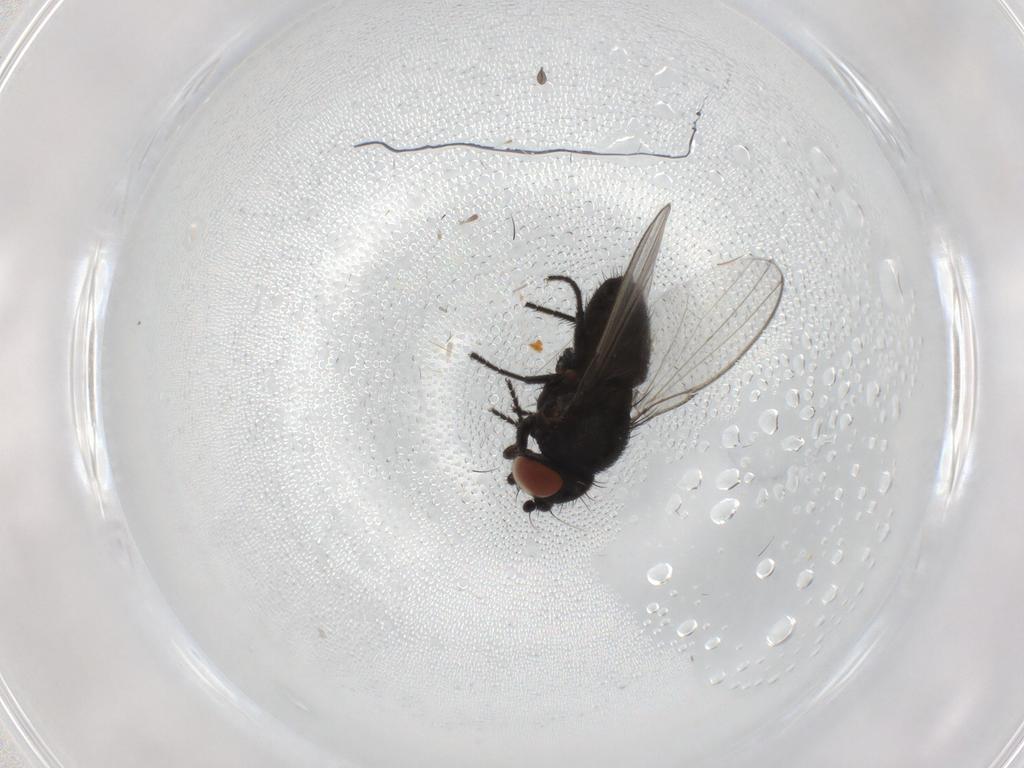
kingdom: Animalia
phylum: Arthropoda
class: Insecta
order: Diptera
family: Milichiidae
